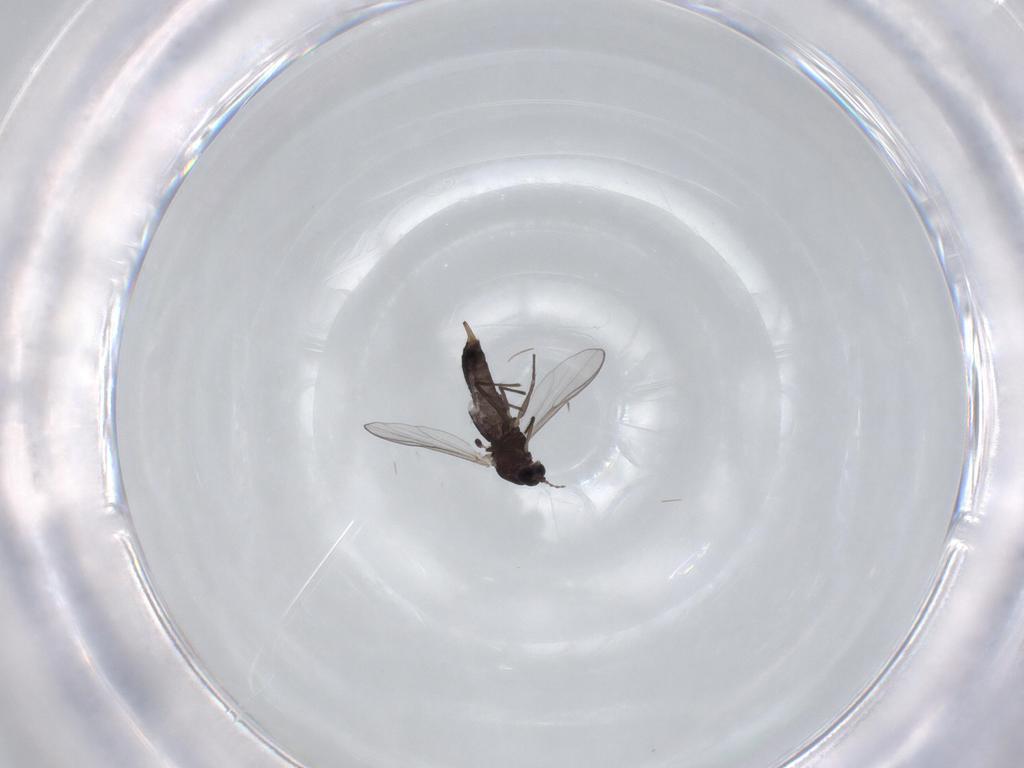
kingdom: Animalia
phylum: Arthropoda
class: Insecta
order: Diptera
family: Chironomidae
